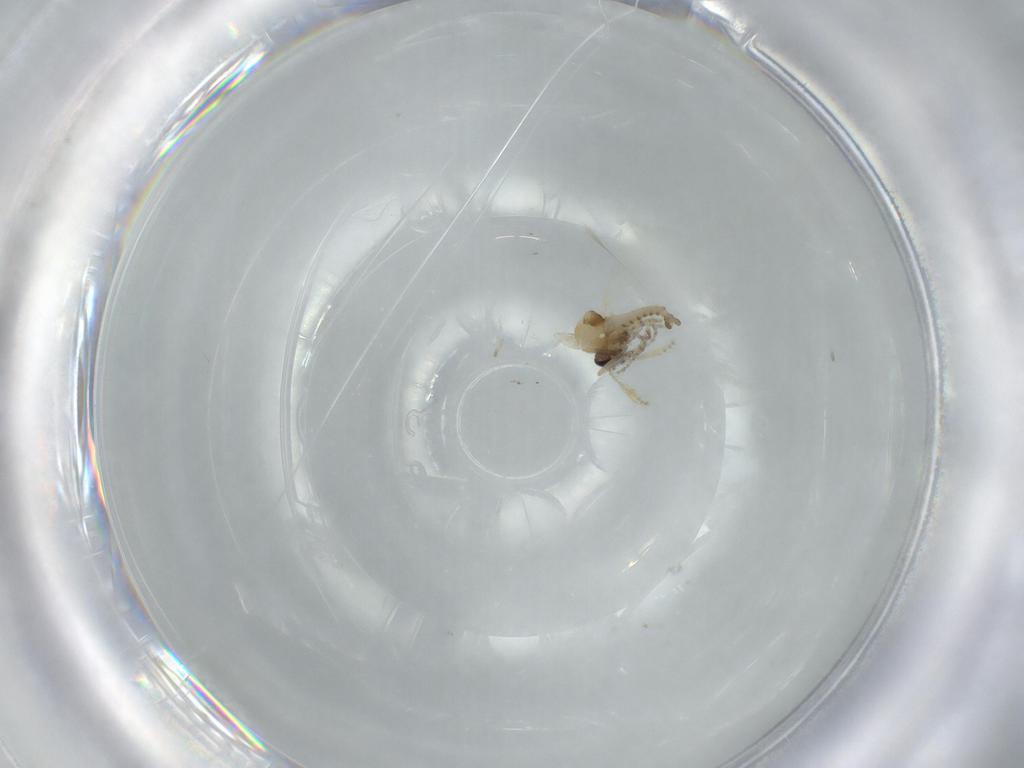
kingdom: Animalia
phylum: Arthropoda
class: Insecta
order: Diptera
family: Ceratopogonidae
